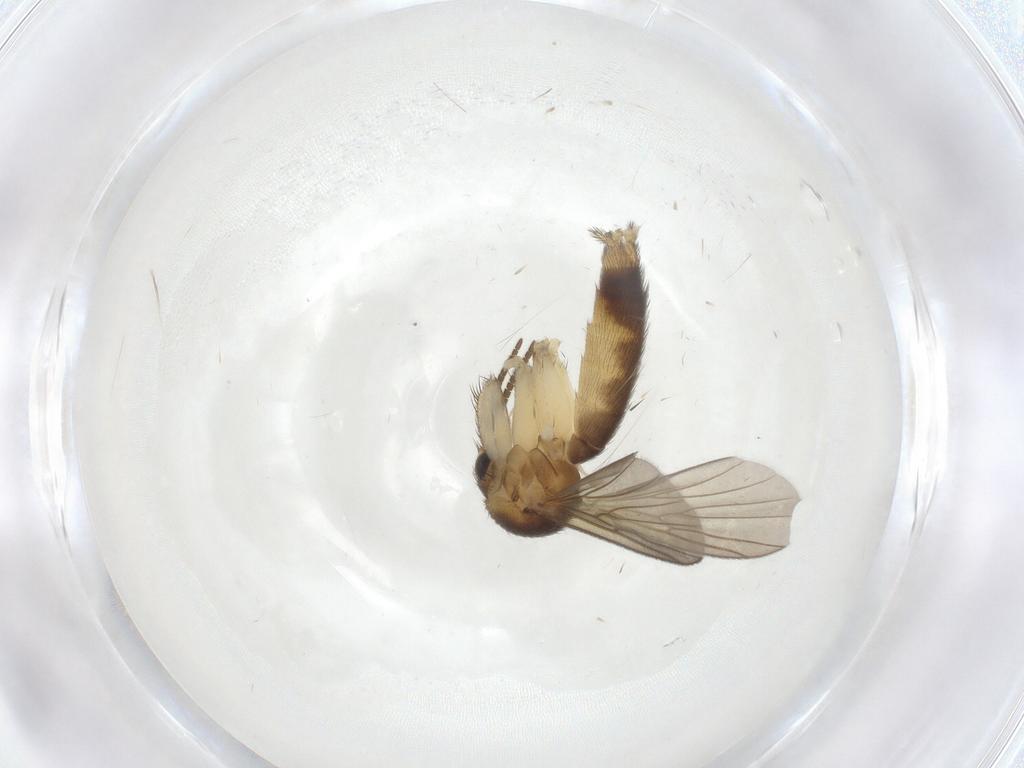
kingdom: Animalia
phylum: Arthropoda
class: Insecta
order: Diptera
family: Mycetophilidae
